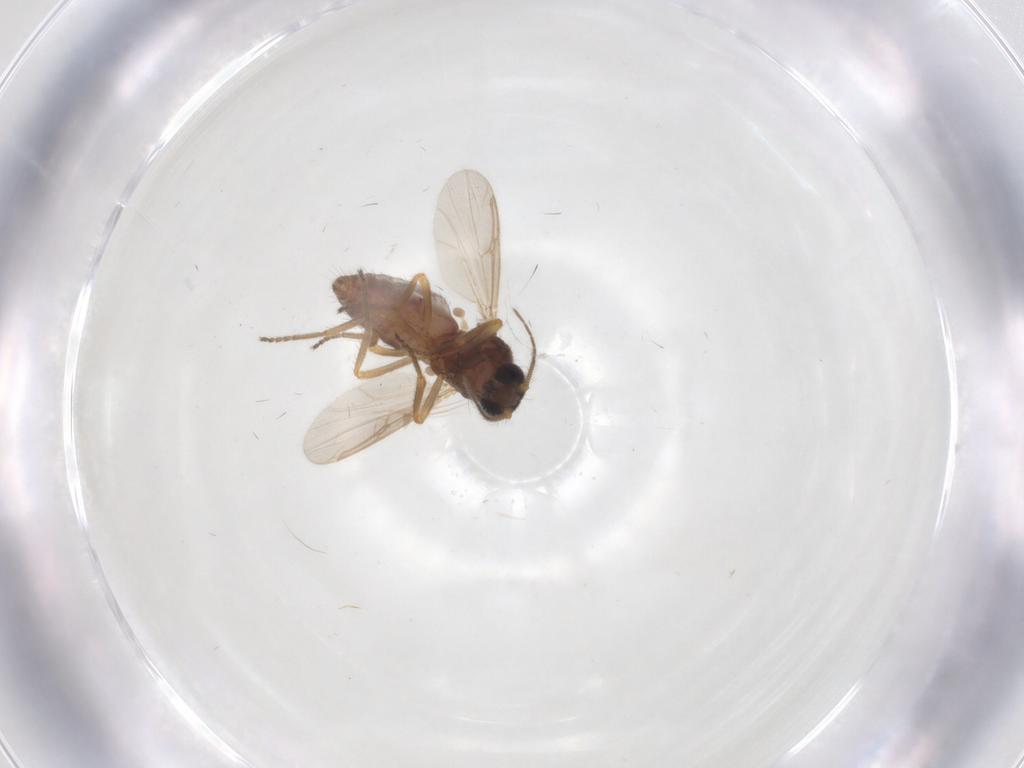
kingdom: Animalia
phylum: Arthropoda
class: Insecta
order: Diptera
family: Ceratopogonidae
